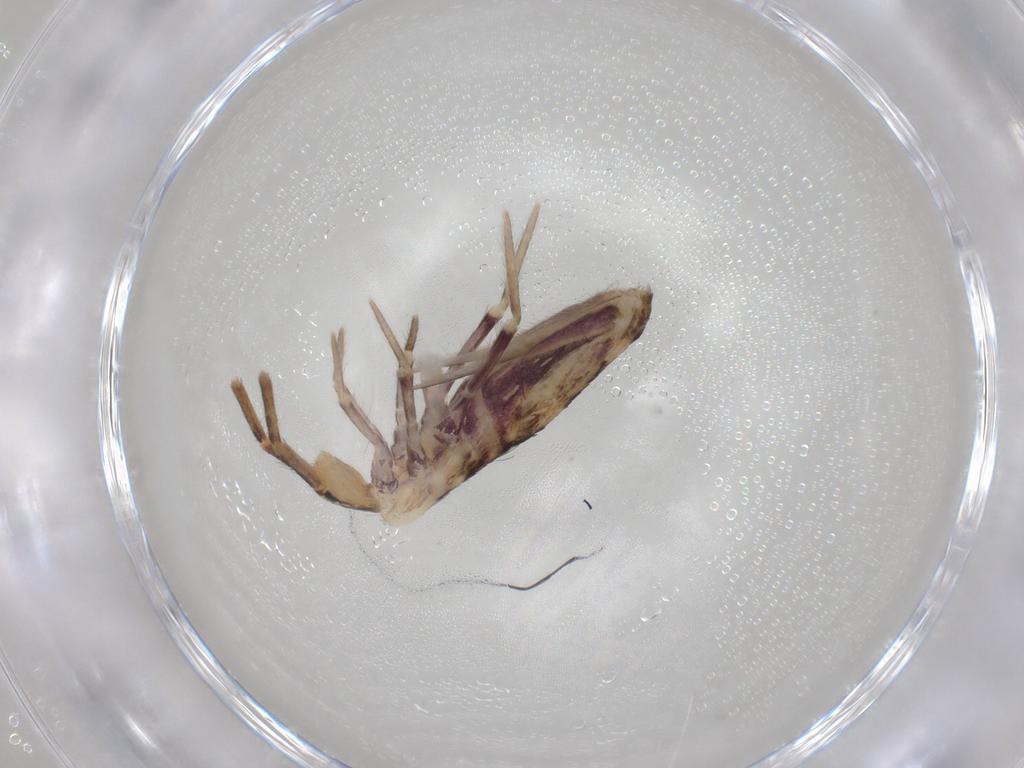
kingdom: Animalia
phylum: Arthropoda
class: Collembola
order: Poduromorpha
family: Hypogastruridae
